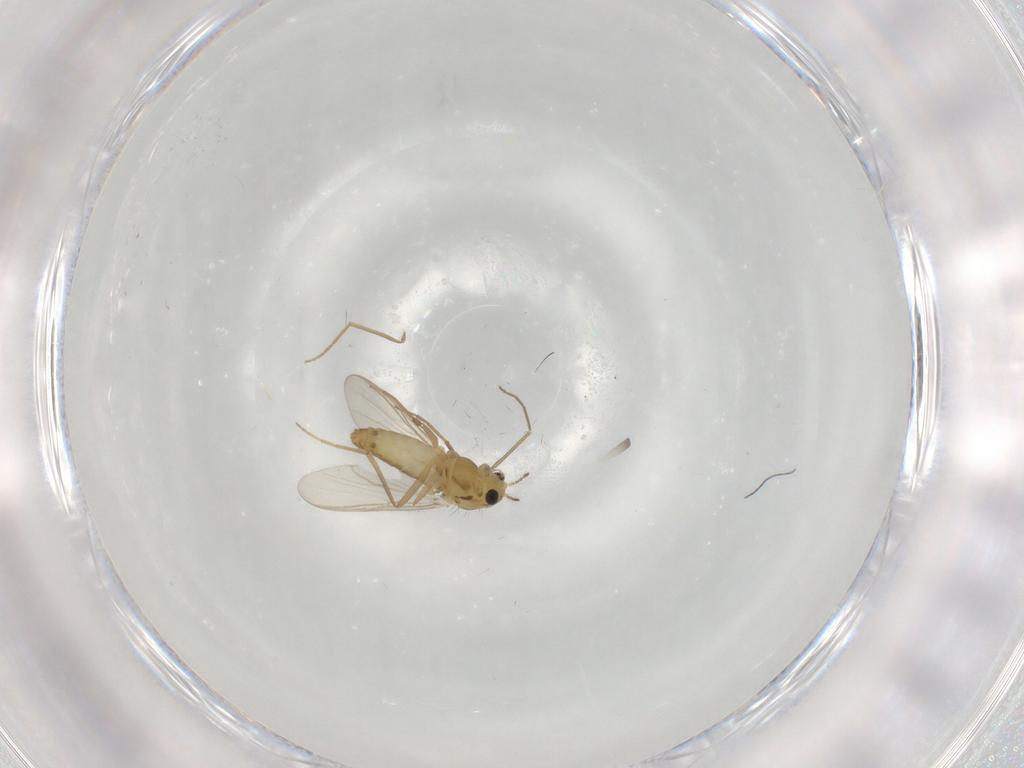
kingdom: Animalia
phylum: Arthropoda
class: Insecta
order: Diptera
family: Chironomidae
